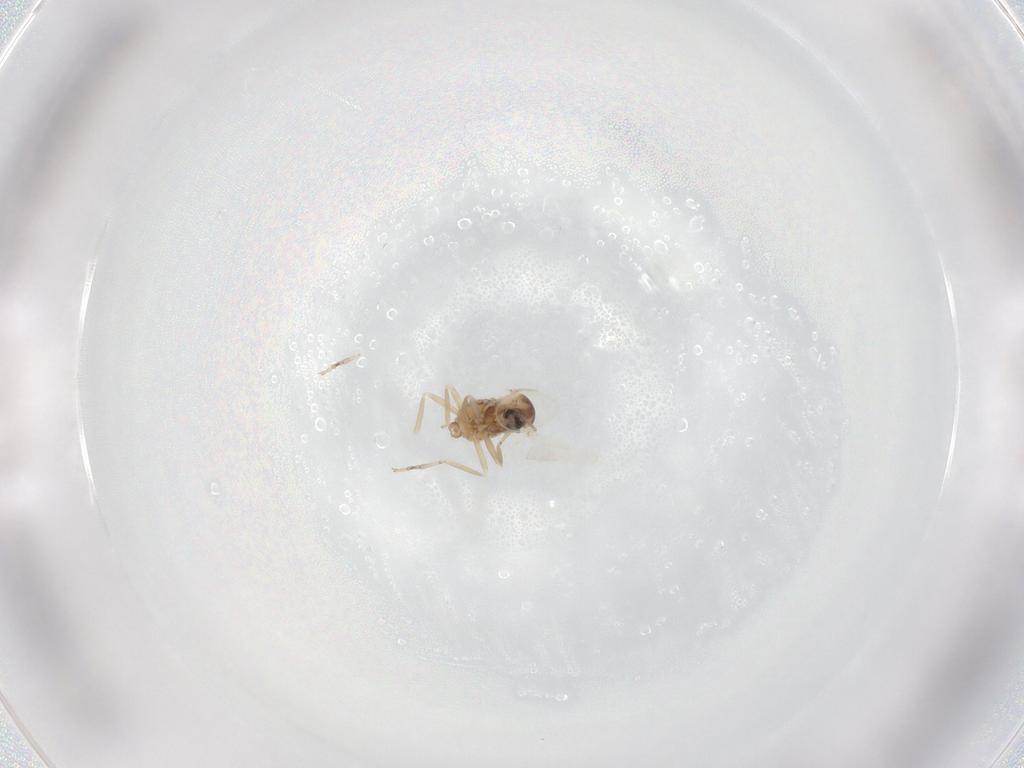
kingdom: Animalia
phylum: Arthropoda
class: Insecta
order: Diptera
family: Cecidomyiidae
